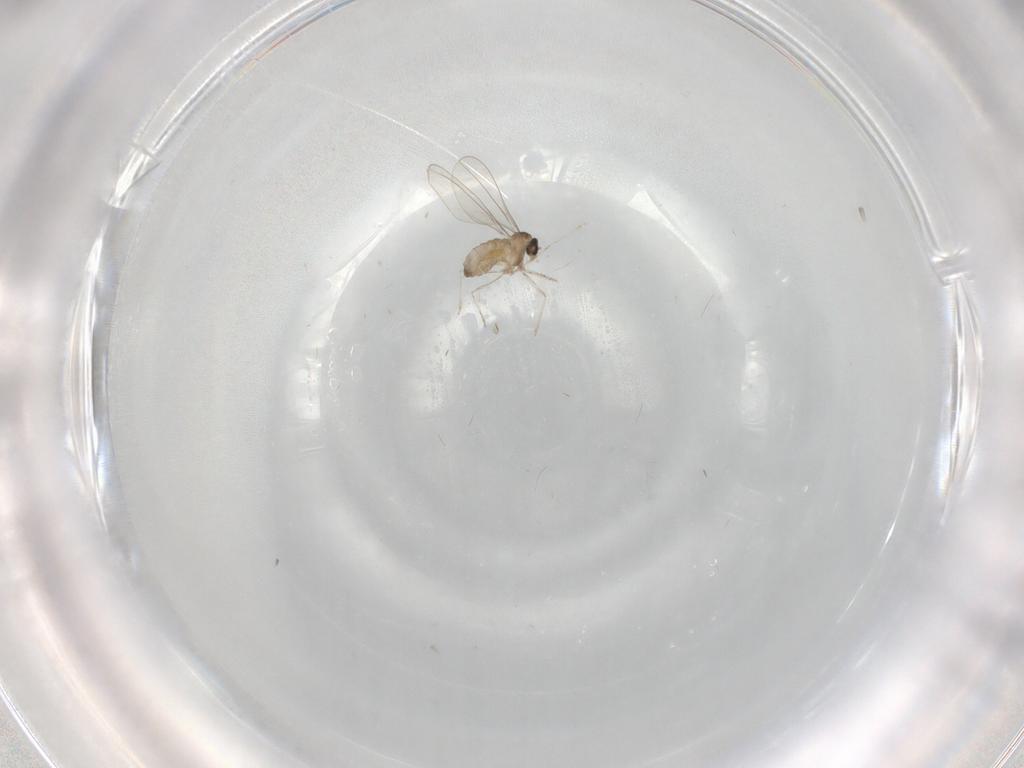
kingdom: Animalia
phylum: Arthropoda
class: Insecta
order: Diptera
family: Cecidomyiidae
